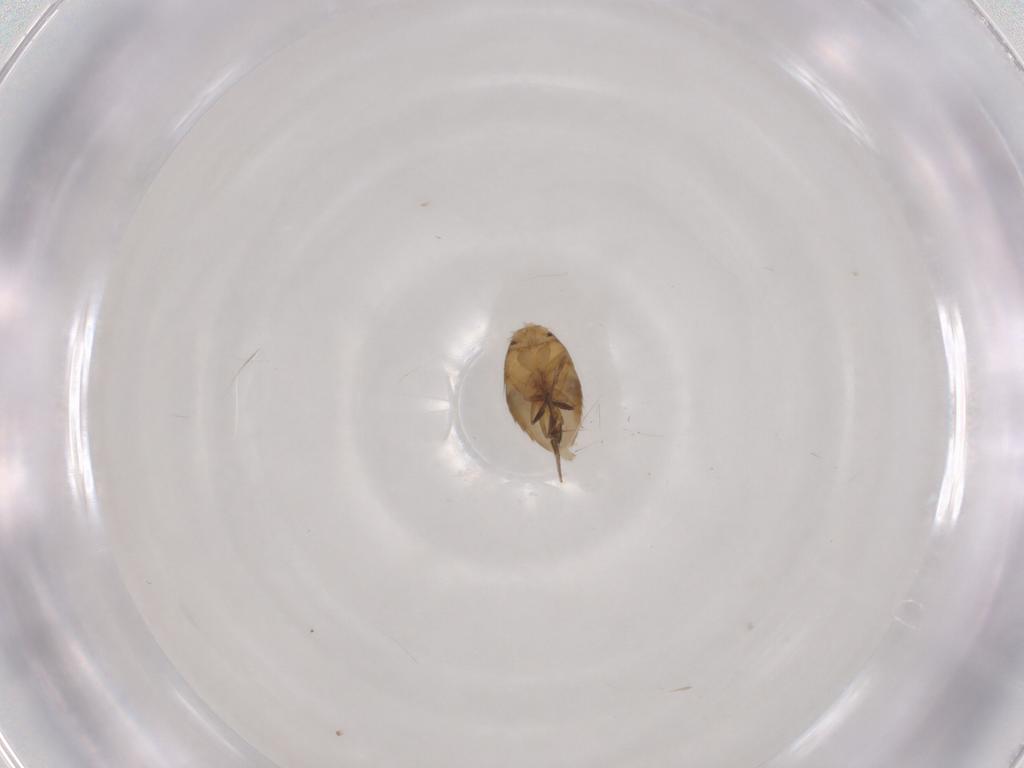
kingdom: Animalia
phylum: Arthropoda
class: Insecta
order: Diptera
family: Phoridae
